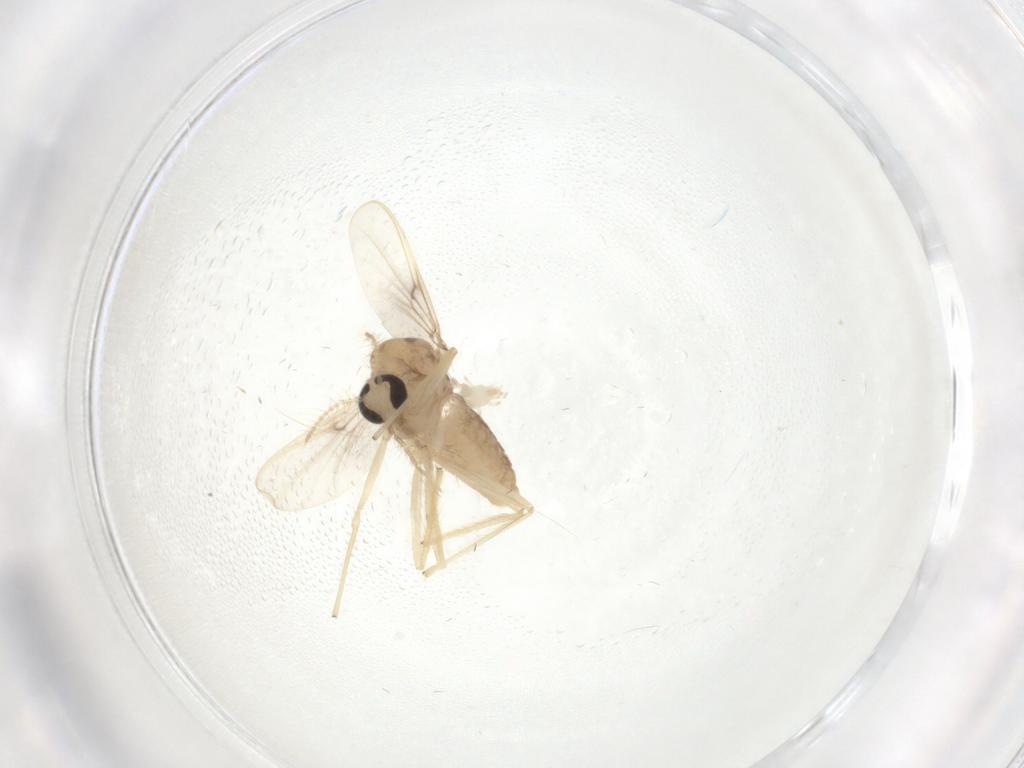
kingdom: Animalia
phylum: Arthropoda
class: Insecta
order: Diptera
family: Chironomidae
